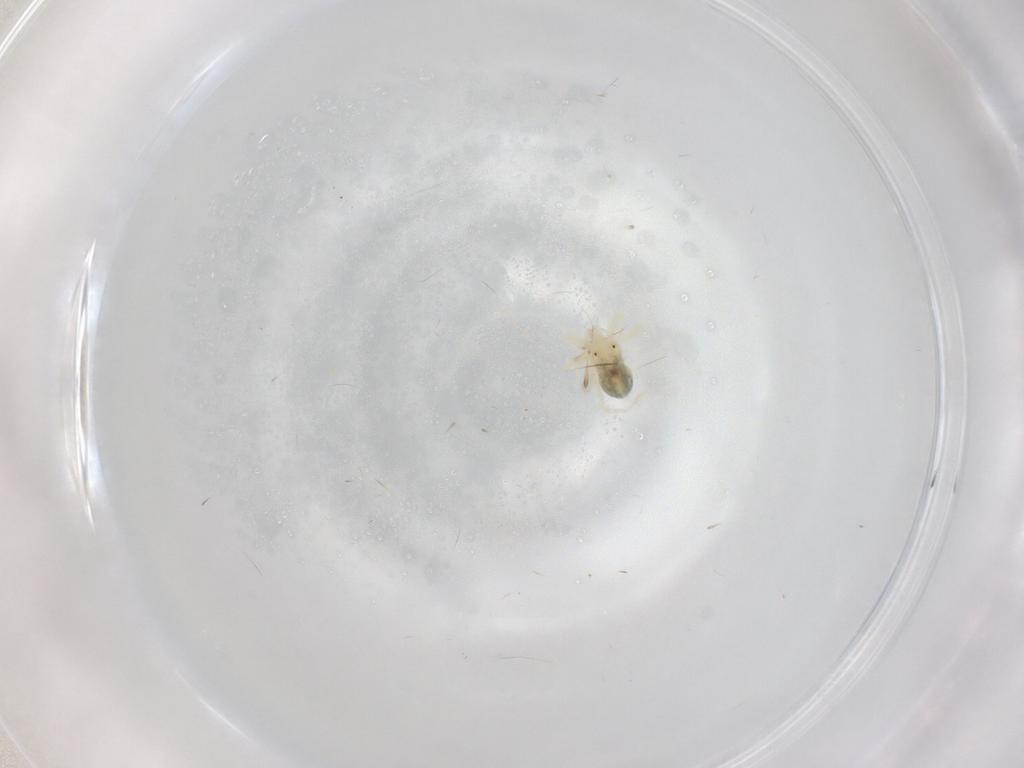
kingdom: Animalia
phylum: Arthropoda
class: Arachnida
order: Trombidiformes
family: Anystidae
